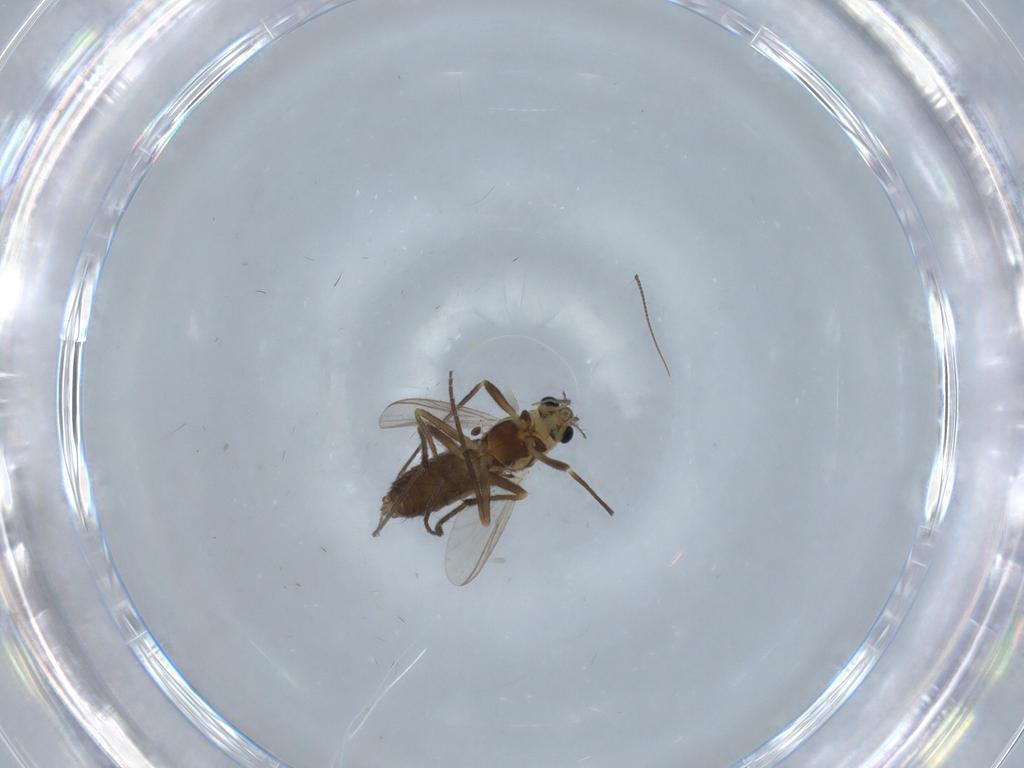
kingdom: Animalia
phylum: Arthropoda
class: Insecta
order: Diptera
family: Chironomidae
